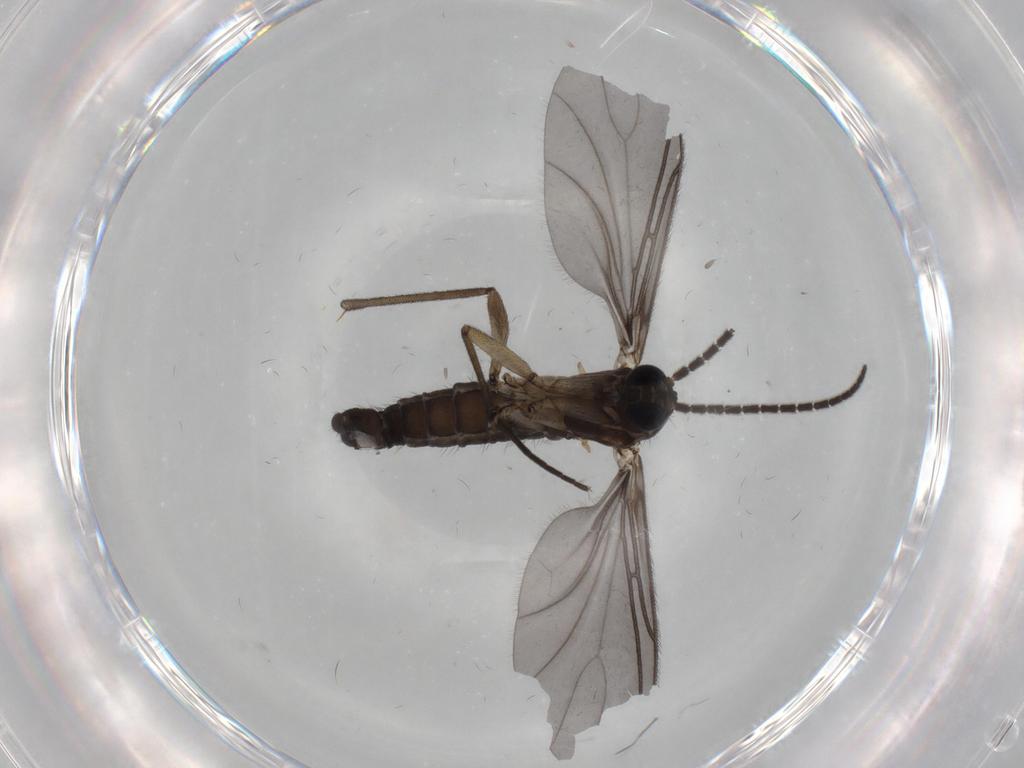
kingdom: Animalia
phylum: Arthropoda
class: Insecta
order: Diptera
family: Sciaridae
